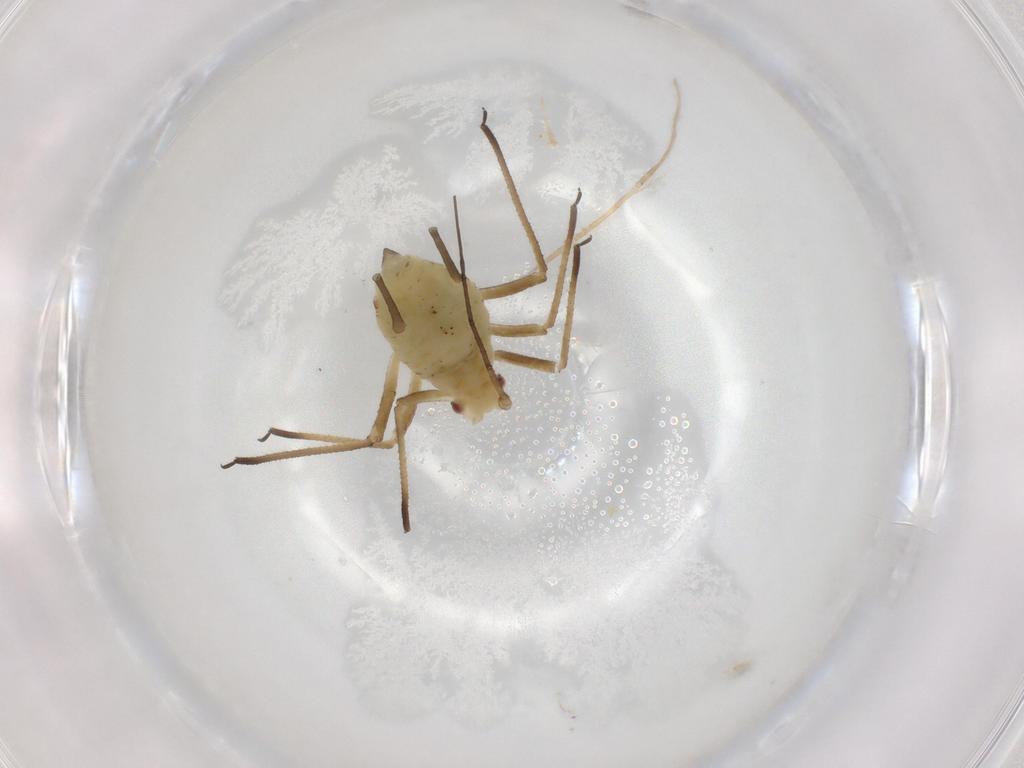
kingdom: Animalia
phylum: Arthropoda
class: Insecta
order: Hemiptera
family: Aphididae
